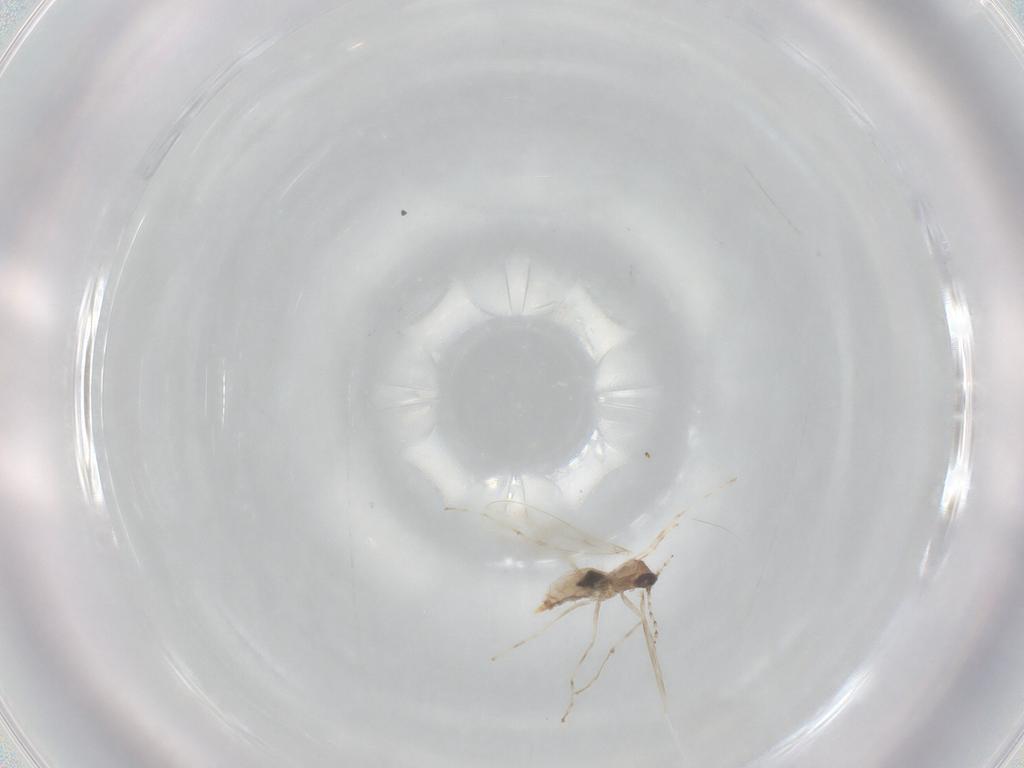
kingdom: Animalia
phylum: Arthropoda
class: Insecta
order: Diptera
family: Cecidomyiidae
